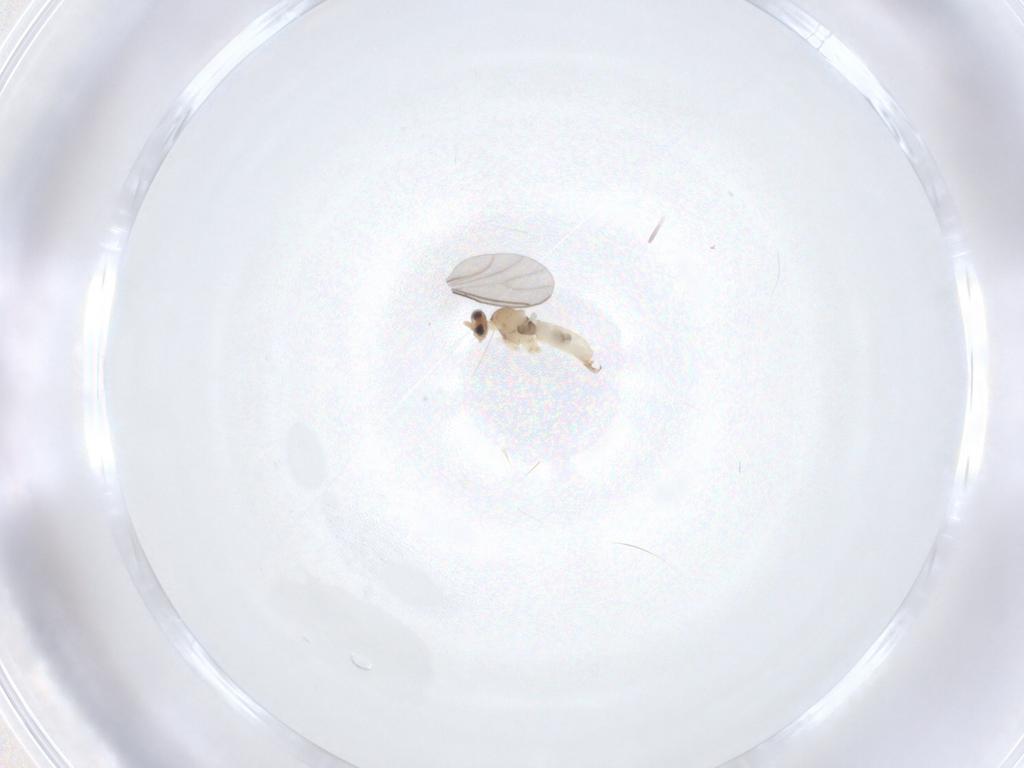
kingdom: Animalia
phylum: Arthropoda
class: Insecta
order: Diptera
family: Cecidomyiidae
